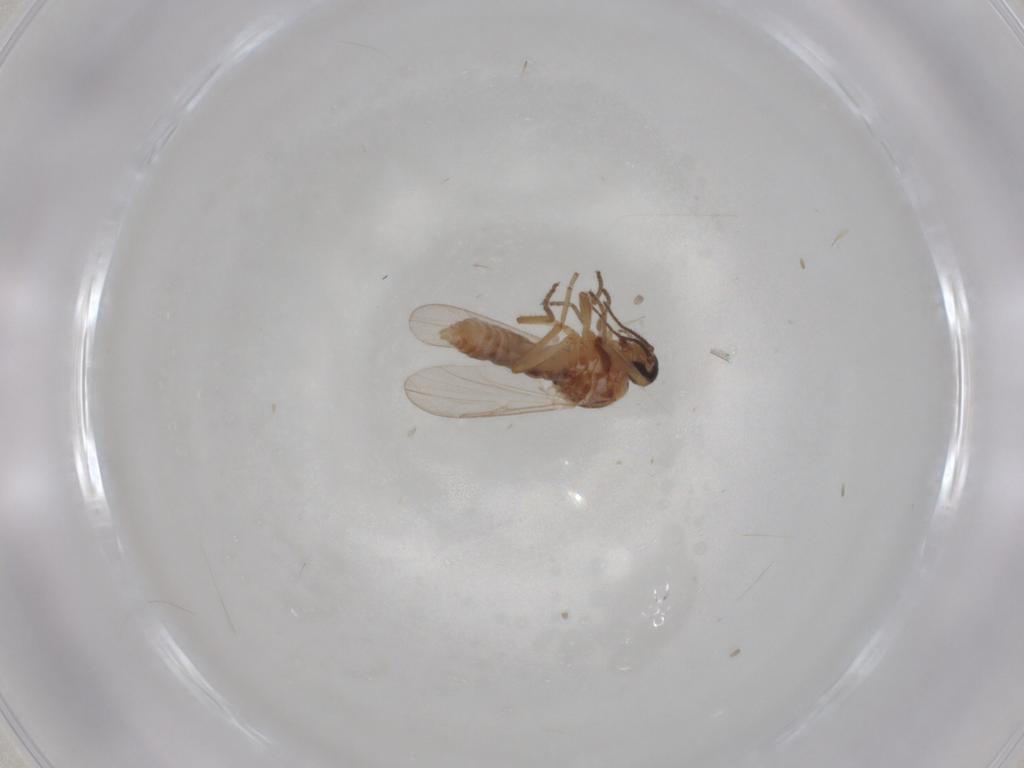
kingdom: Animalia
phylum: Arthropoda
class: Insecta
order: Diptera
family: Ceratopogonidae
